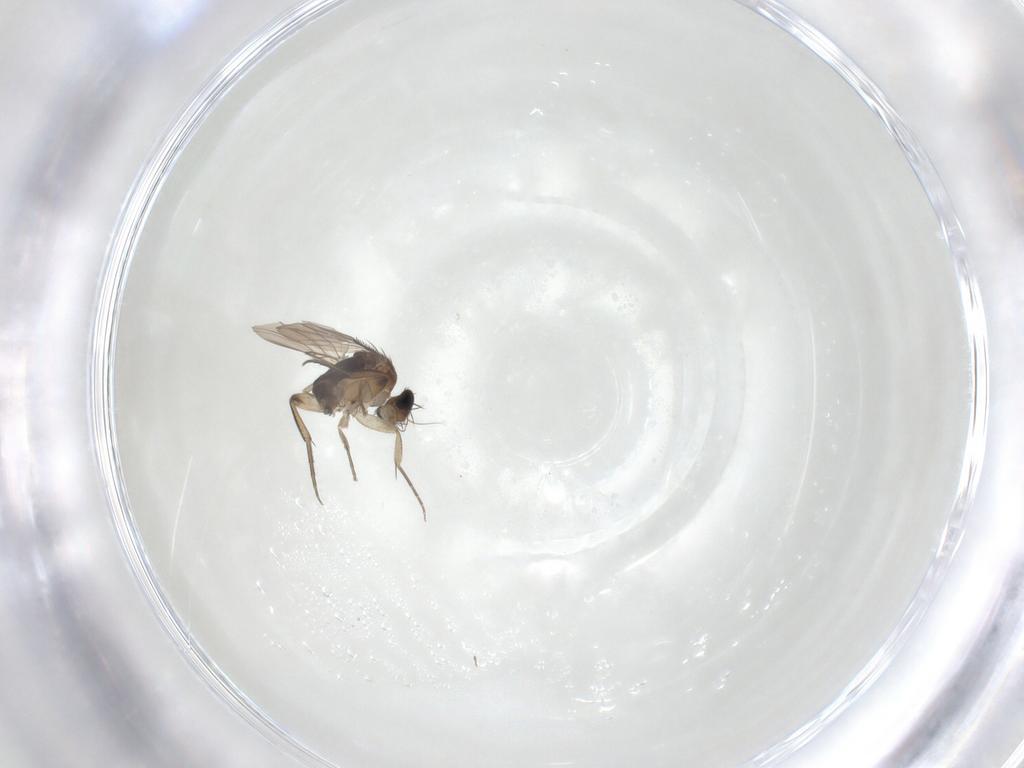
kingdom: Animalia
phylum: Arthropoda
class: Insecta
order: Diptera
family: Phoridae
